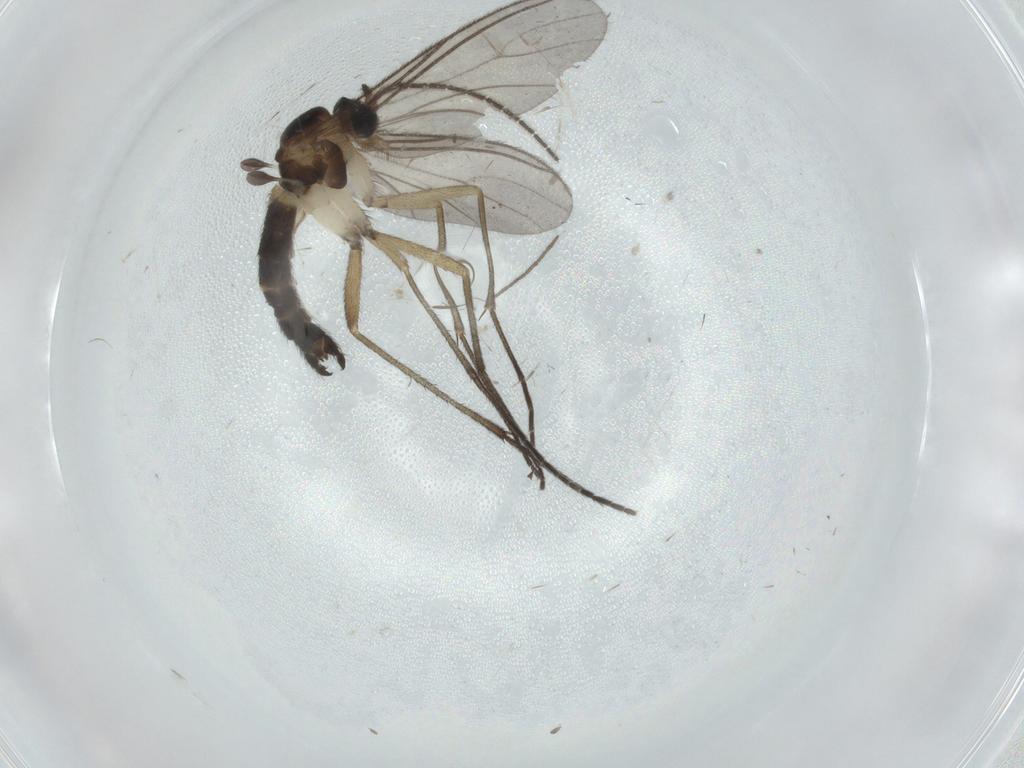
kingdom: Animalia
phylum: Arthropoda
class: Insecta
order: Diptera
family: Sciaridae
